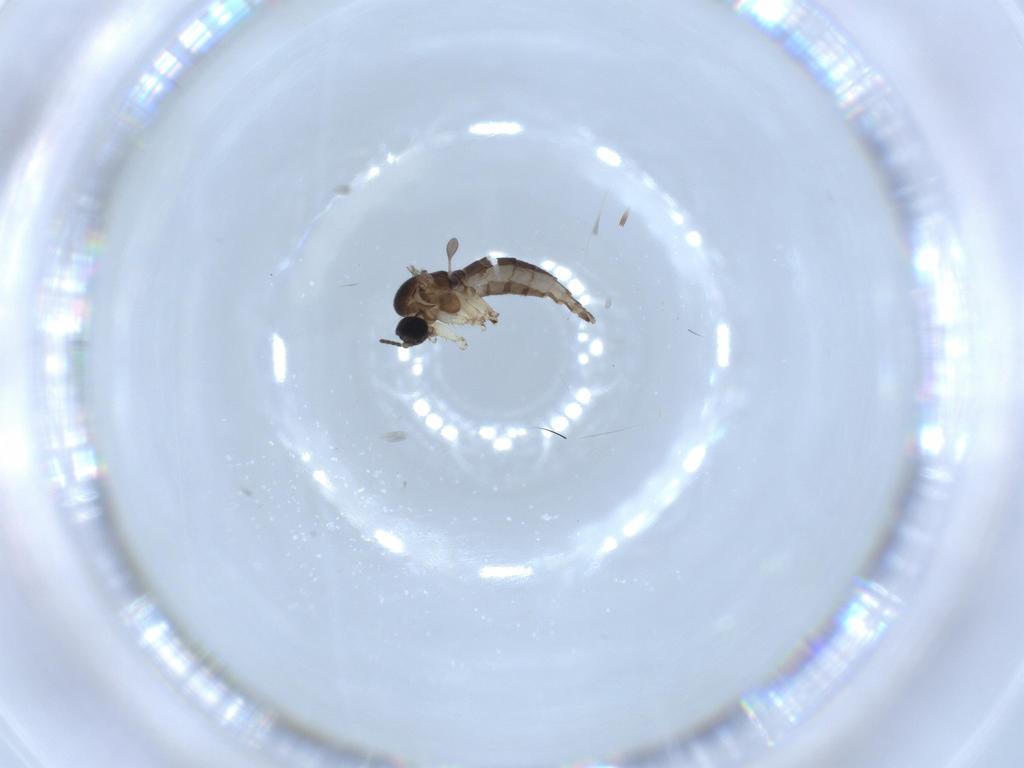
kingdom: Animalia
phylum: Arthropoda
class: Insecta
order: Diptera
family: Sciaridae
